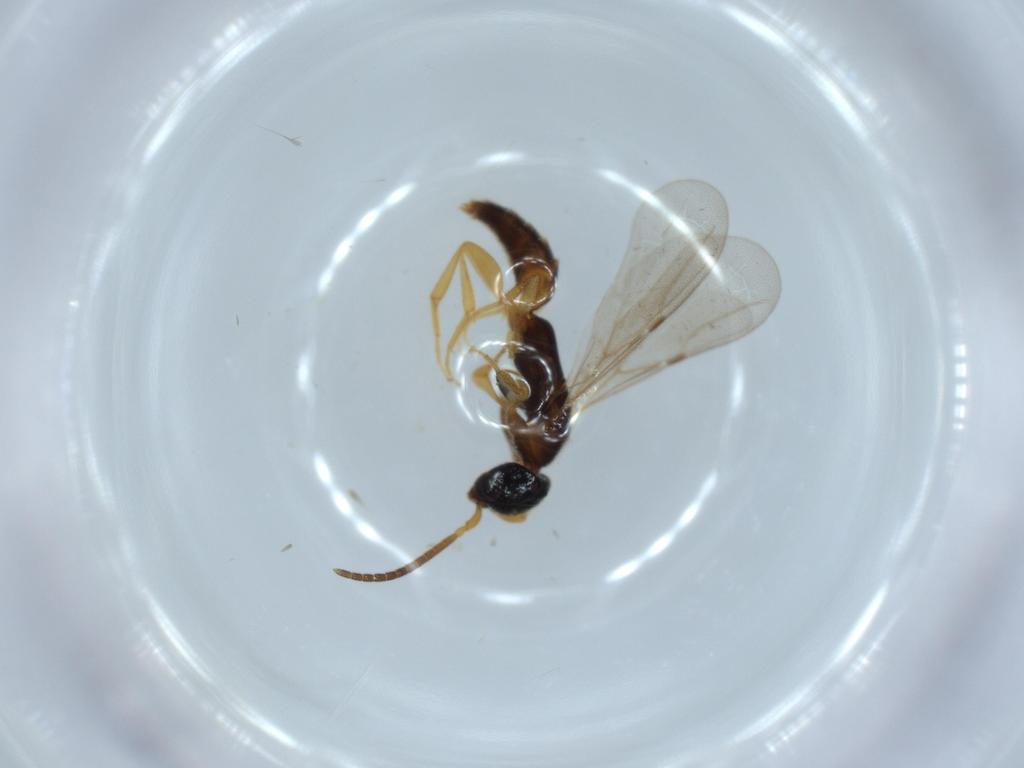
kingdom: Animalia
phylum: Arthropoda
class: Insecta
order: Hymenoptera
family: Bethylidae
